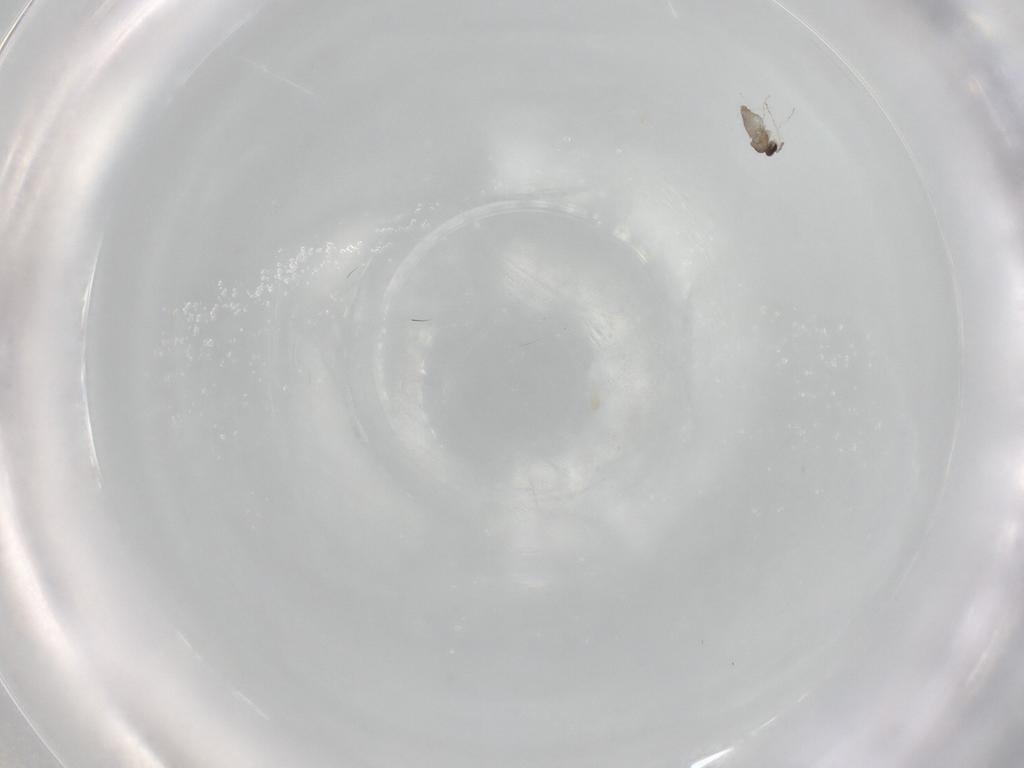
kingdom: Animalia
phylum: Arthropoda
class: Insecta
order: Diptera
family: Cecidomyiidae
